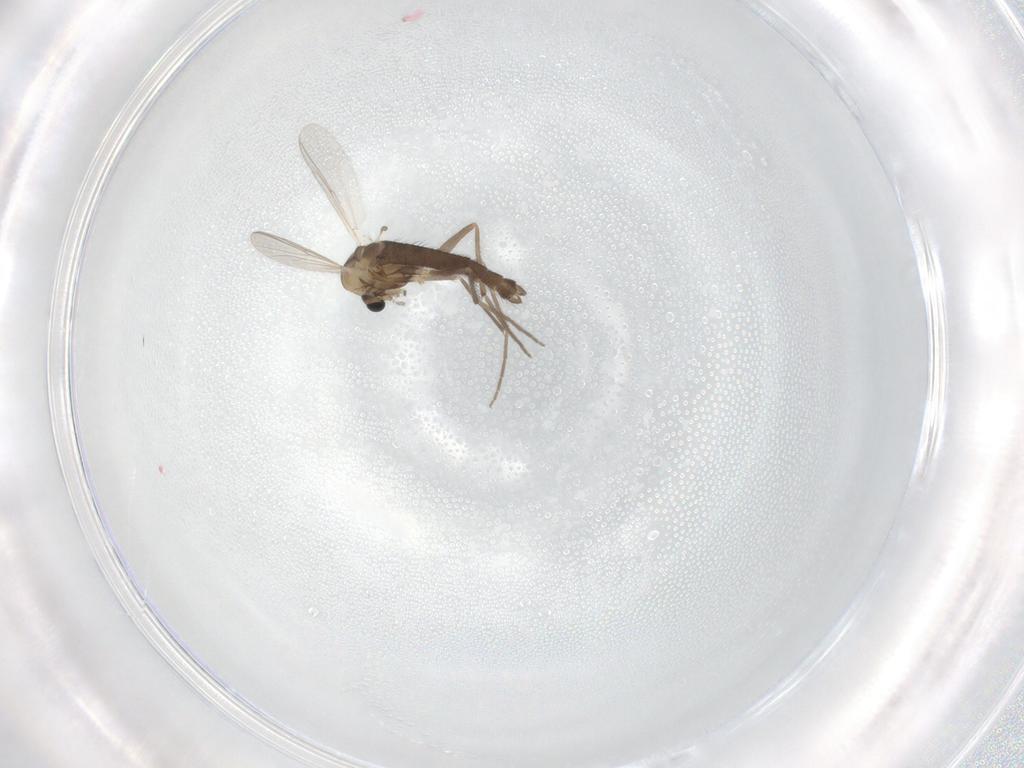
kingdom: Animalia
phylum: Arthropoda
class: Insecta
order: Diptera
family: Chironomidae
